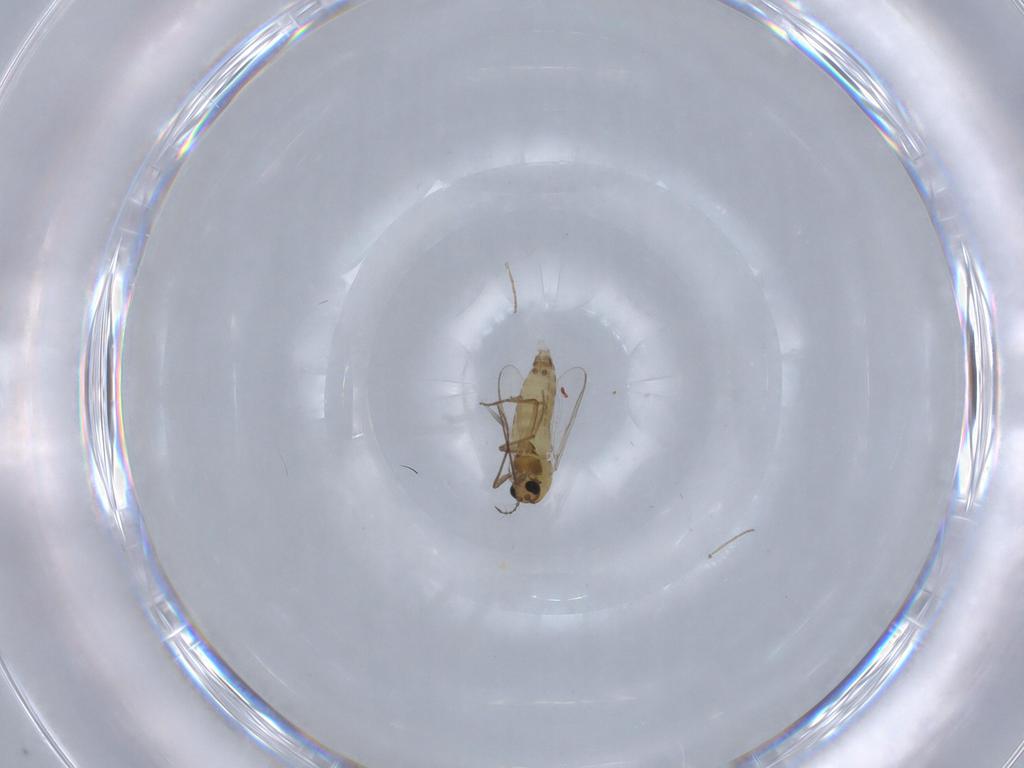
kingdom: Animalia
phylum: Arthropoda
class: Insecta
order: Diptera
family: Chironomidae
